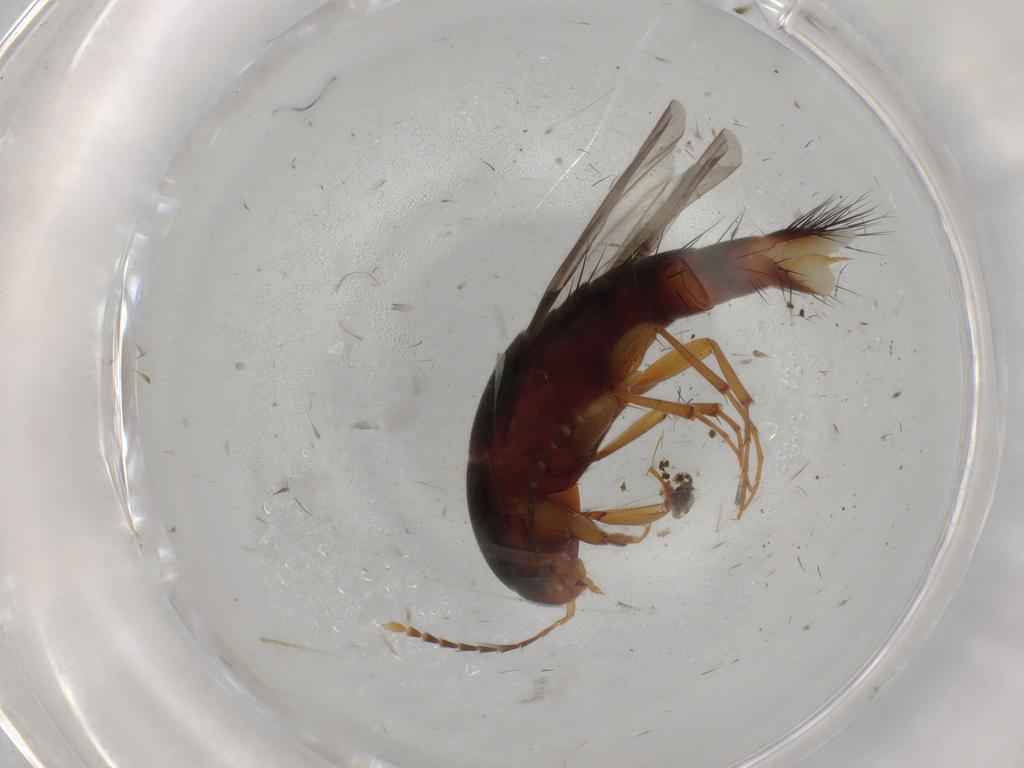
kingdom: Animalia
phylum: Arthropoda
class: Insecta
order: Coleoptera
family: Staphylinidae
